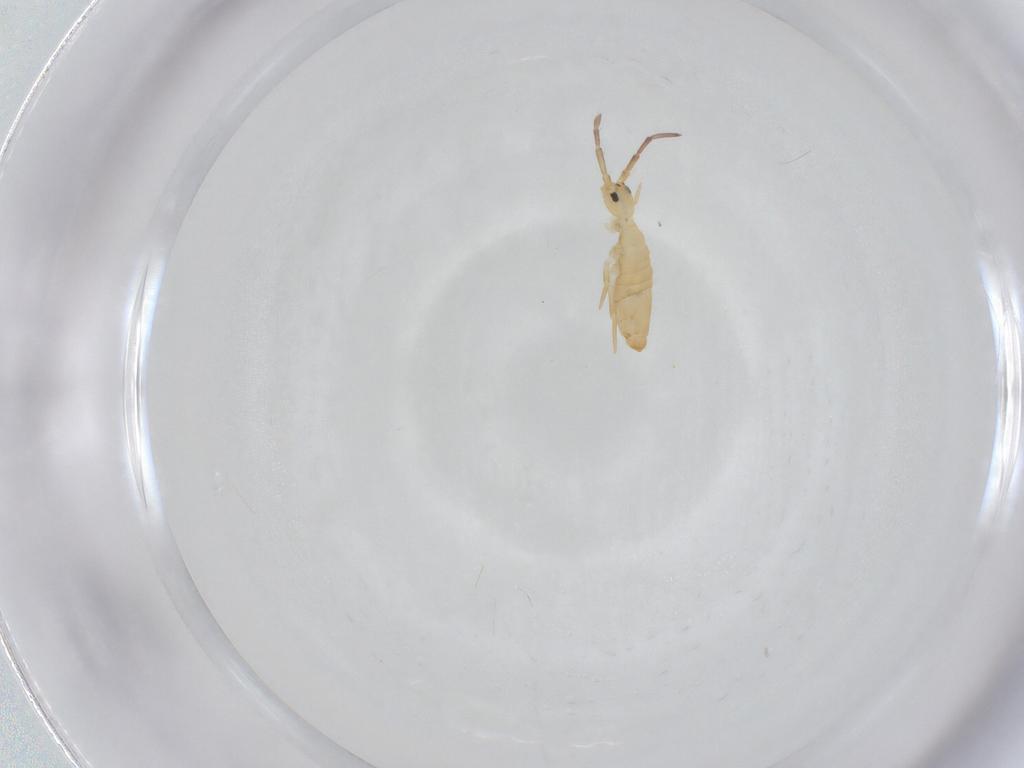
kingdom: Animalia
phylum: Arthropoda
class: Collembola
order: Entomobryomorpha
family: Entomobryidae
